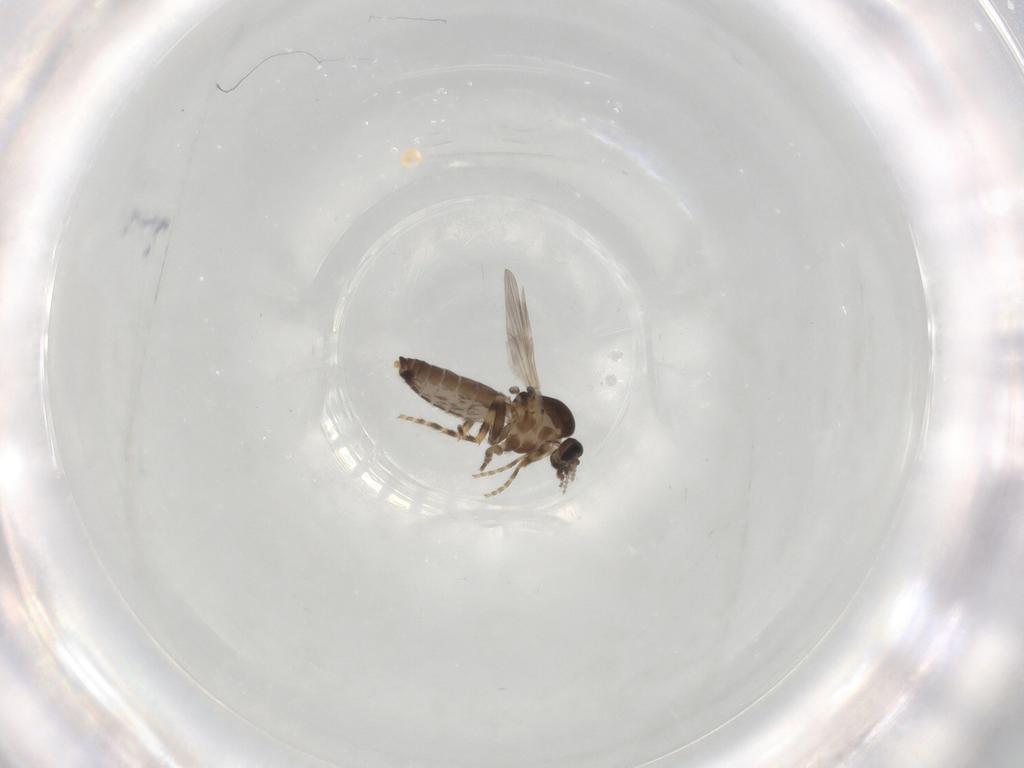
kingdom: Animalia
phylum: Arthropoda
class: Insecta
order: Diptera
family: Ceratopogonidae
